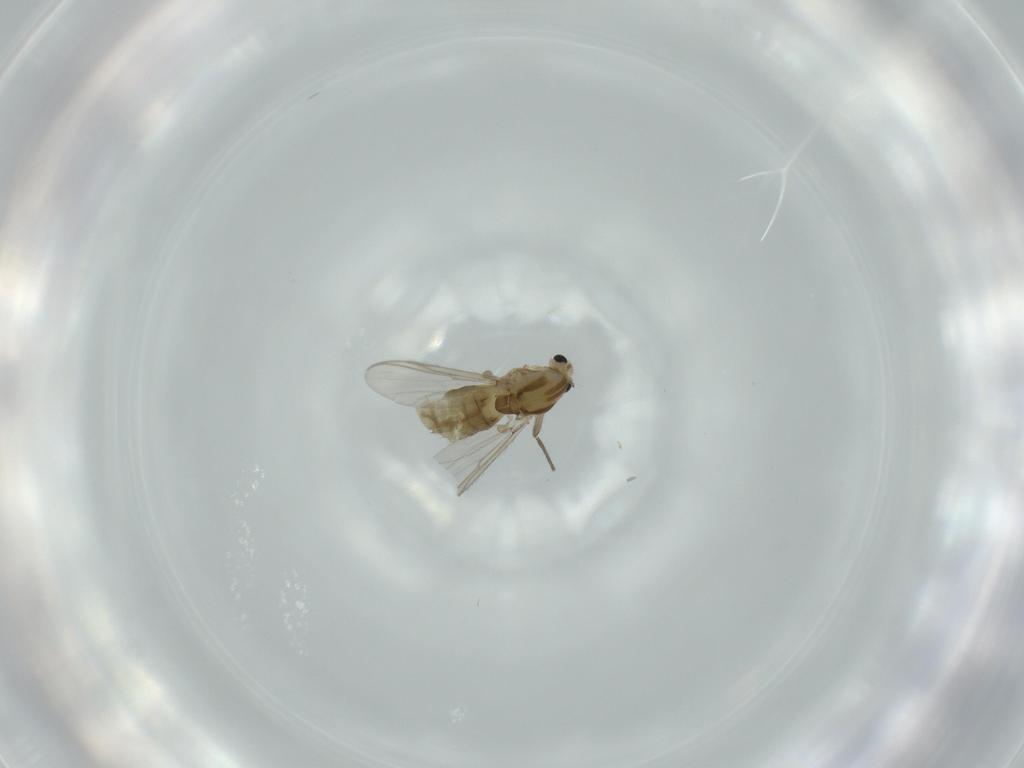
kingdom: Animalia
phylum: Arthropoda
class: Insecta
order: Diptera
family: Chironomidae
